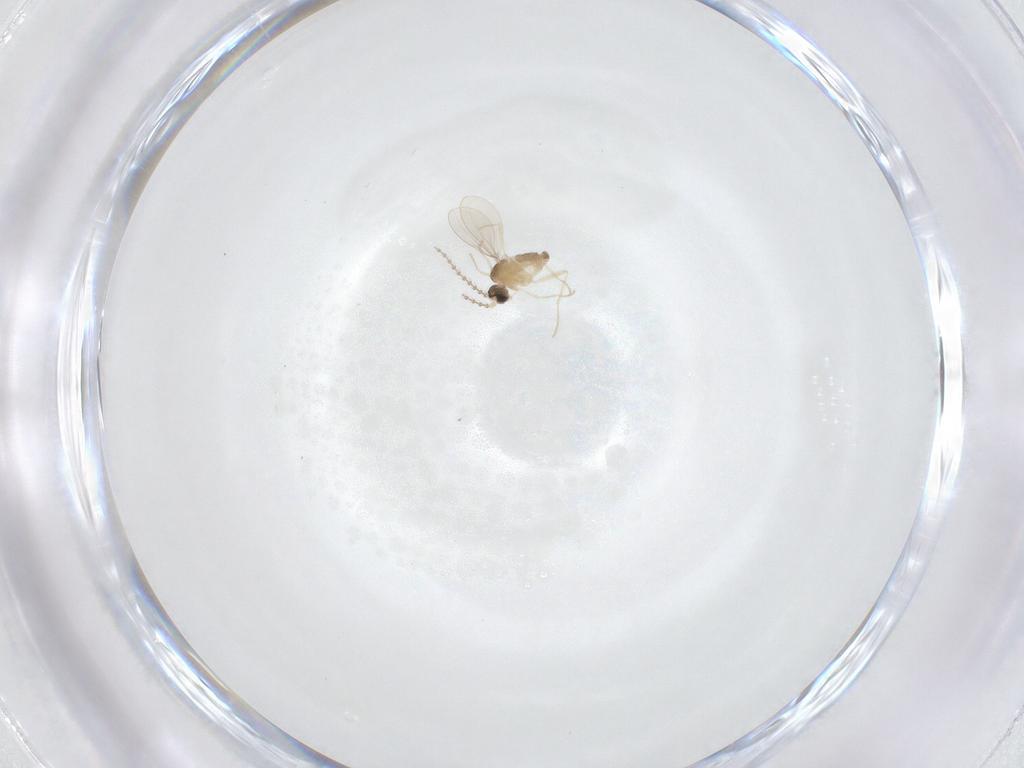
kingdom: Animalia
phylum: Arthropoda
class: Insecta
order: Diptera
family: Cecidomyiidae
